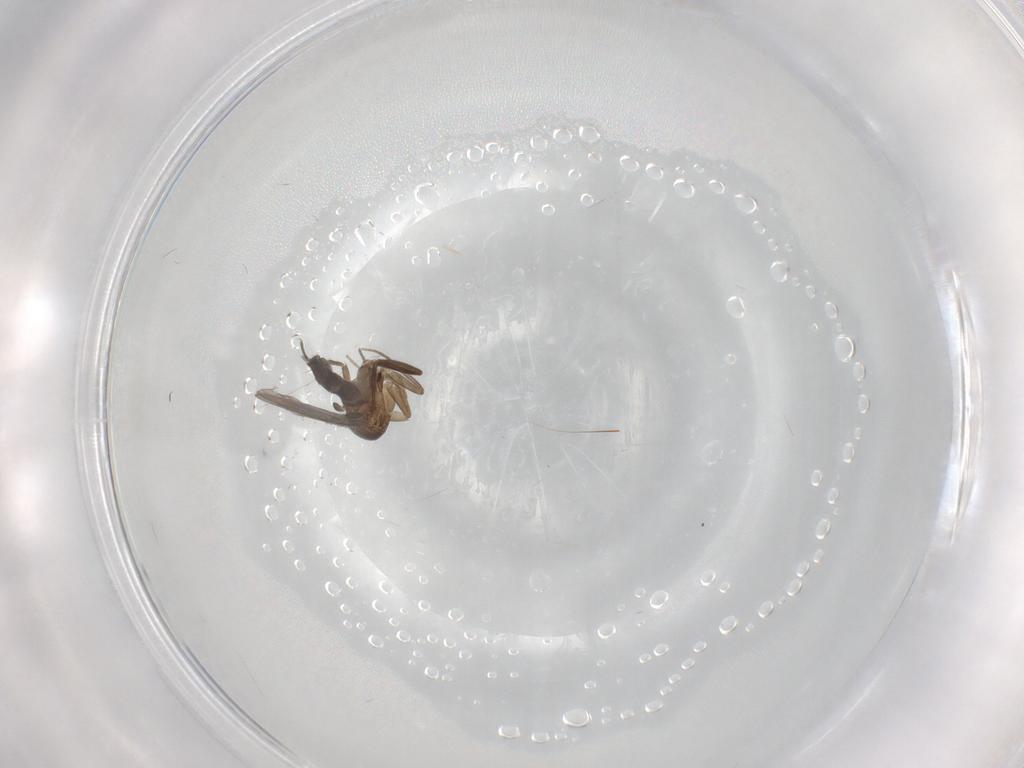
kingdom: Animalia
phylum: Arthropoda
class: Insecta
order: Diptera
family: Phoridae
